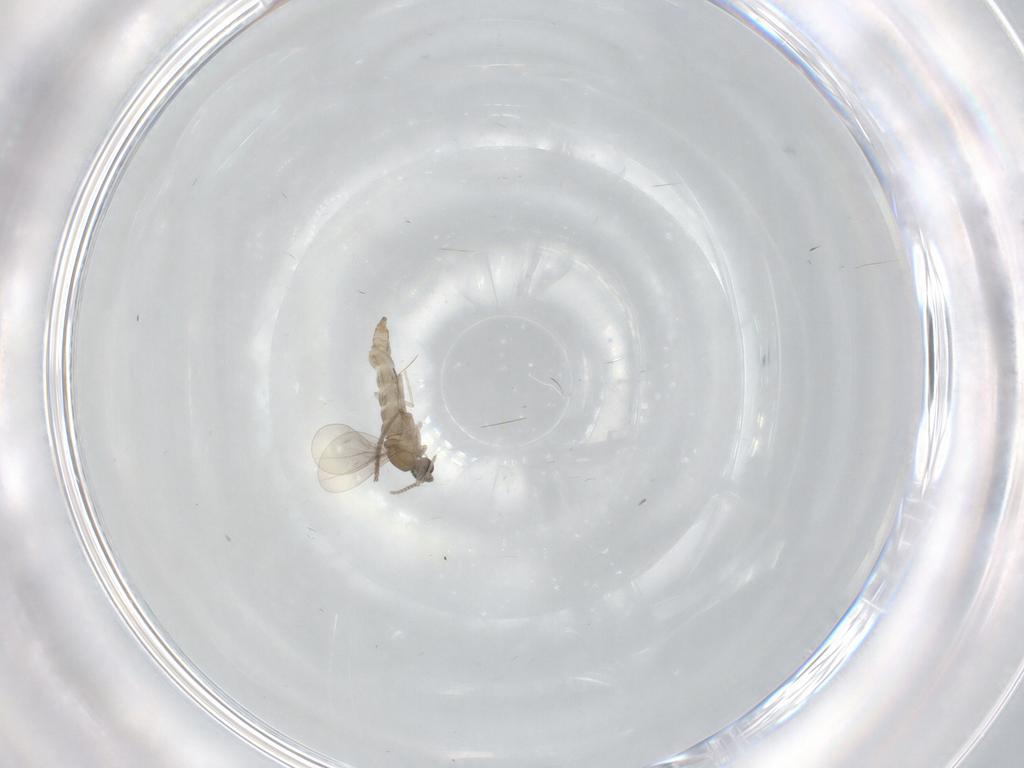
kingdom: Animalia
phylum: Arthropoda
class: Insecta
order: Diptera
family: Cecidomyiidae
